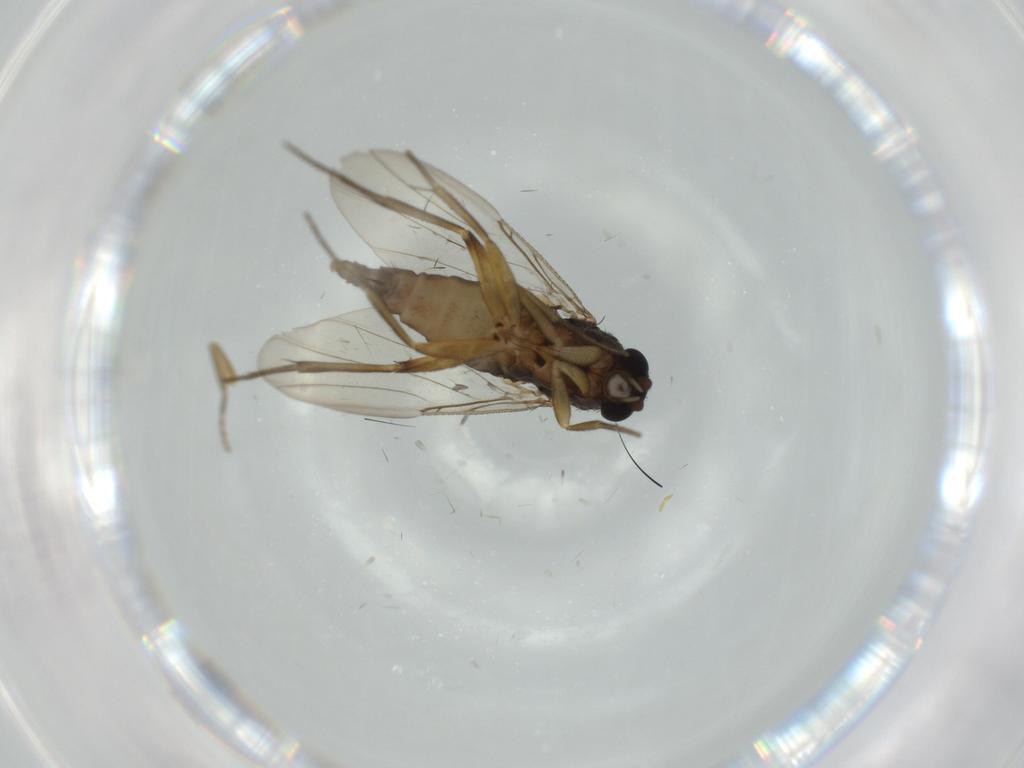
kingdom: Animalia
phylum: Arthropoda
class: Insecta
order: Diptera
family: Phoridae
